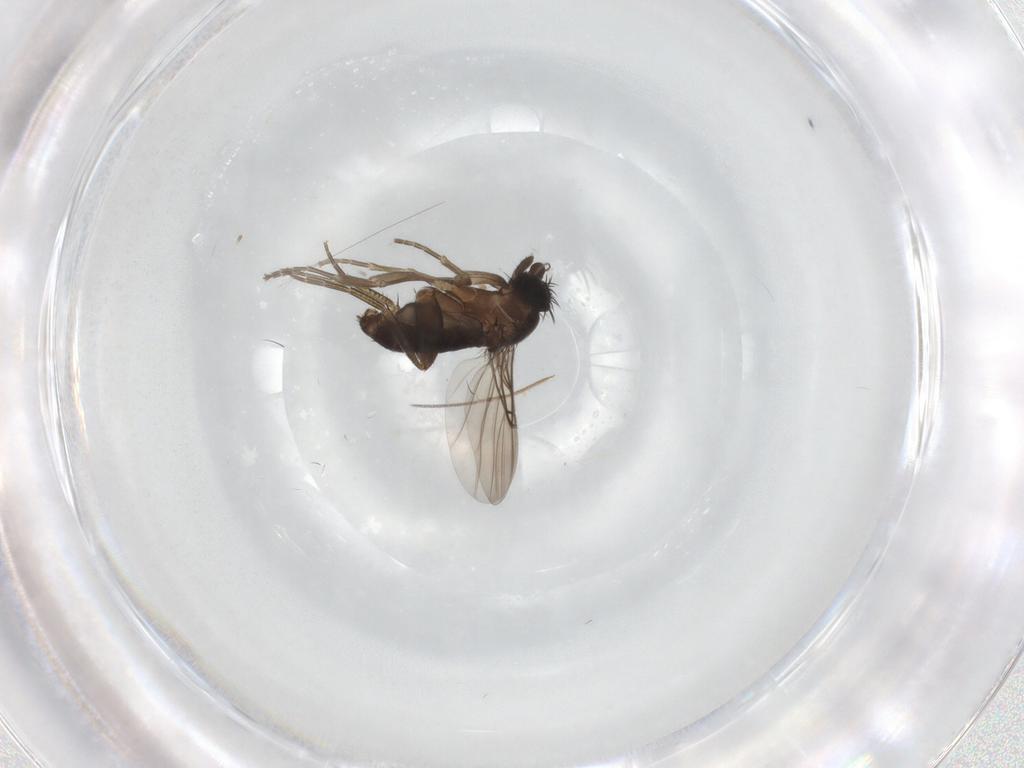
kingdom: Animalia
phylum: Arthropoda
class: Insecta
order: Diptera
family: Phoridae
